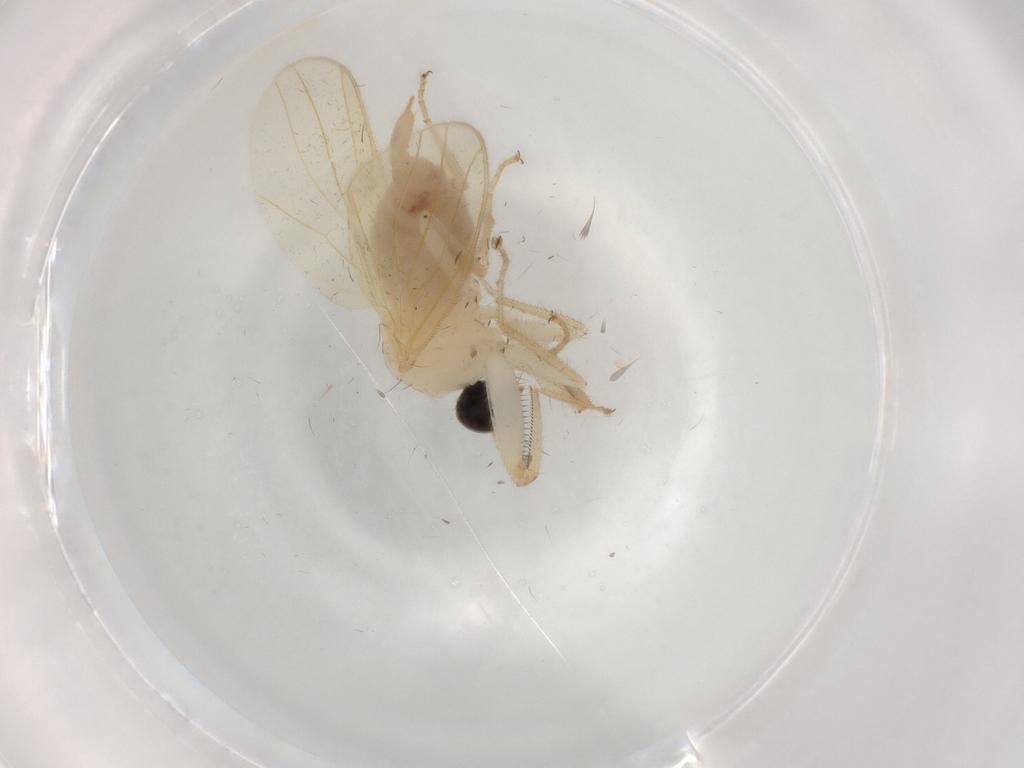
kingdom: Animalia
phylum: Arthropoda
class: Insecta
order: Diptera
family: Hybotidae
